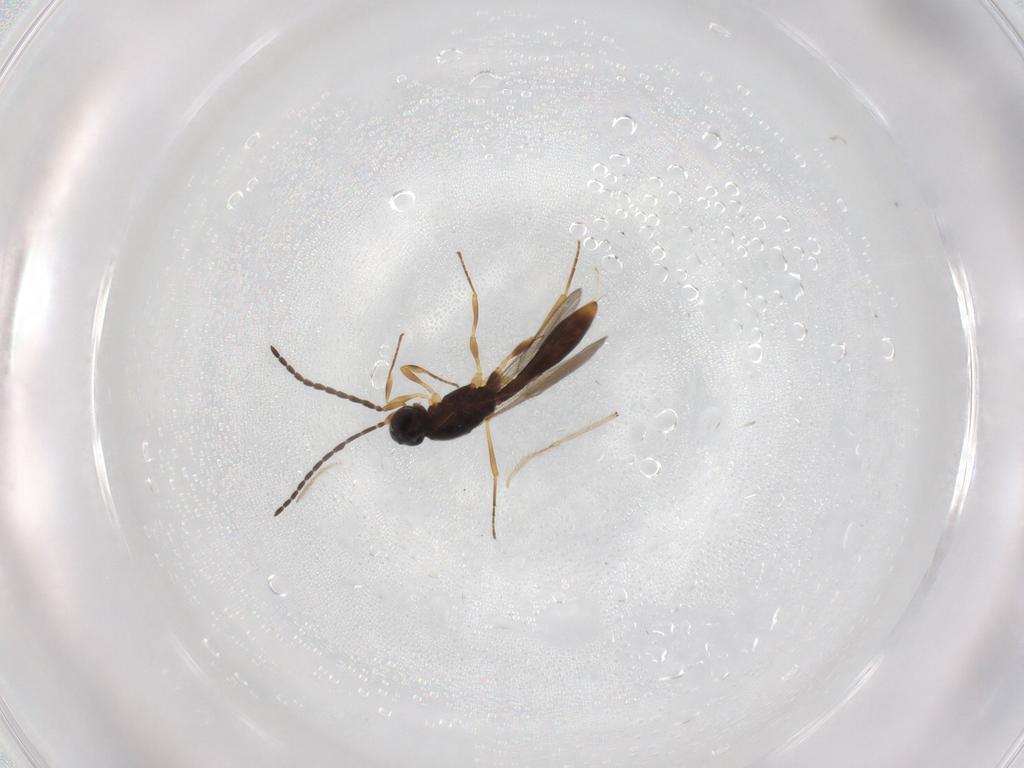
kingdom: Animalia
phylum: Arthropoda
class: Insecta
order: Hymenoptera
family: Scelionidae
